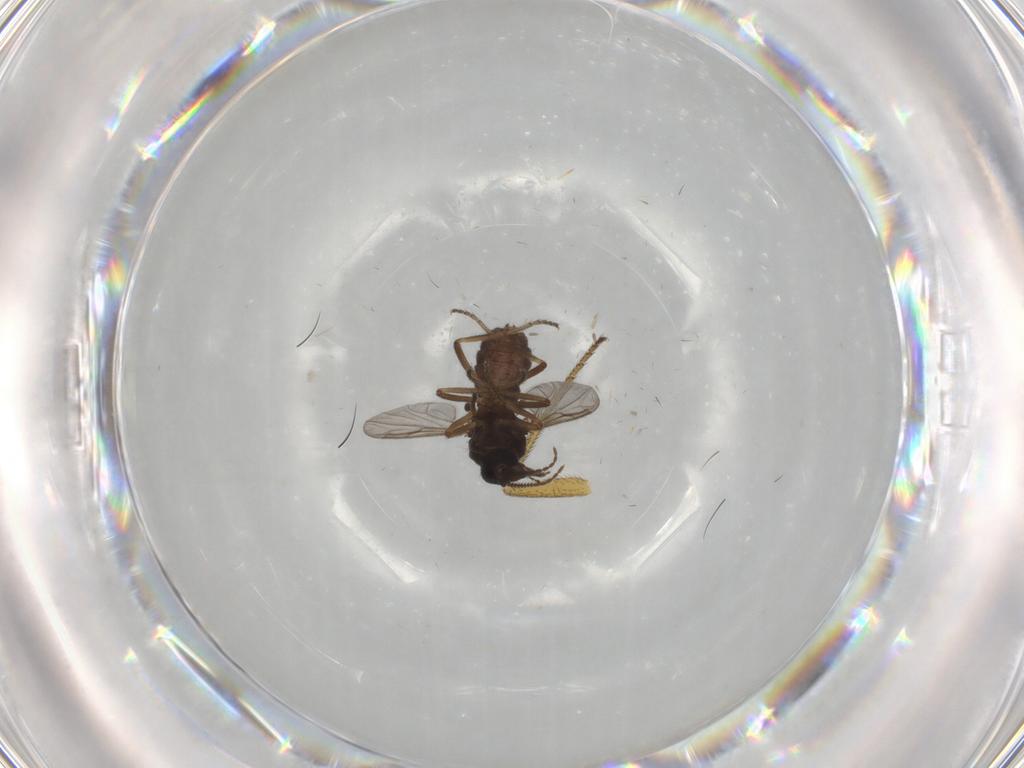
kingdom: Animalia
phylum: Arthropoda
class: Insecta
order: Diptera
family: Ceratopogonidae
